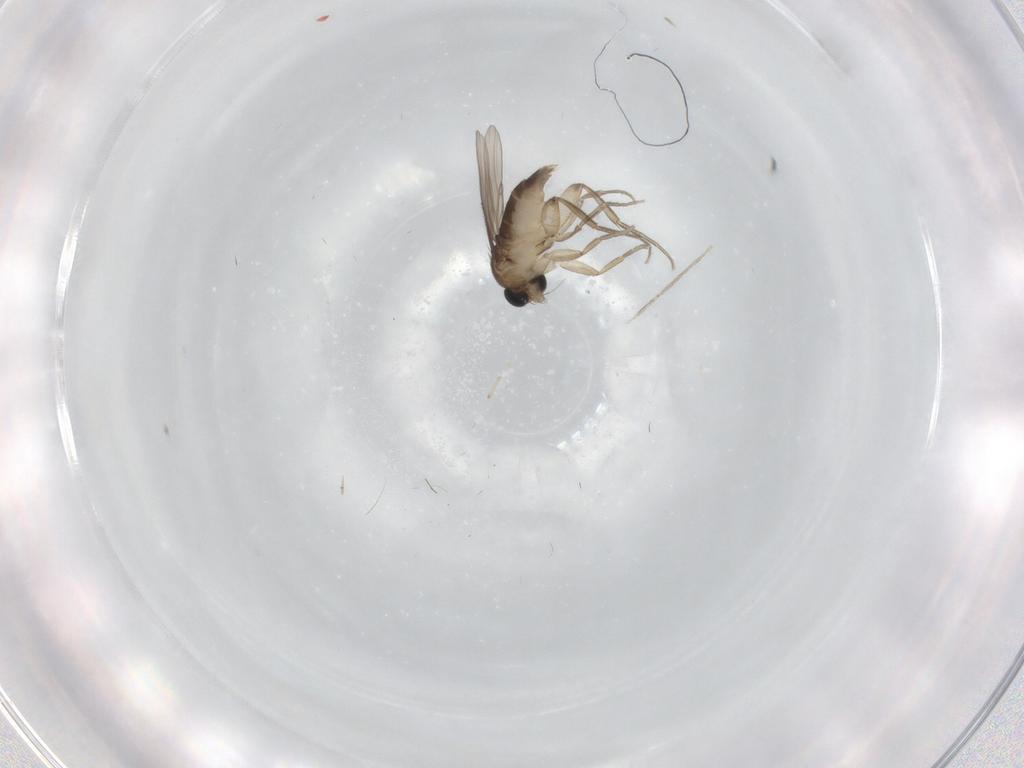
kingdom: Animalia
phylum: Arthropoda
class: Insecta
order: Diptera
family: Phoridae
